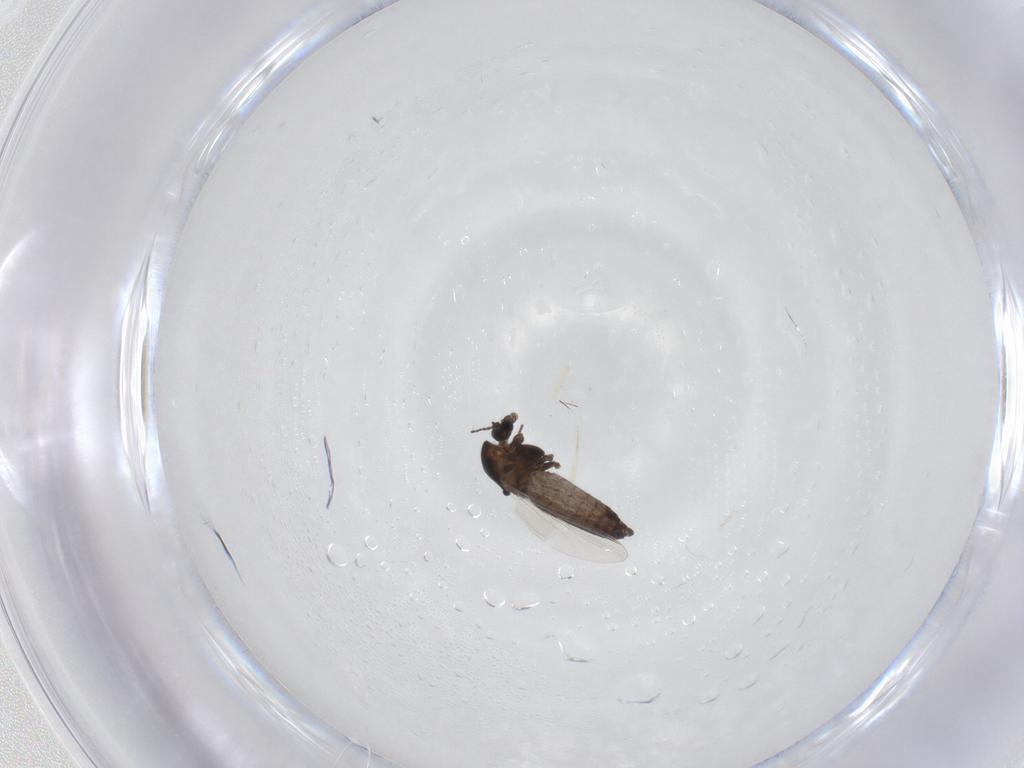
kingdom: Animalia
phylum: Arthropoda
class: Insecta
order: Diptera
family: Chironomidae
